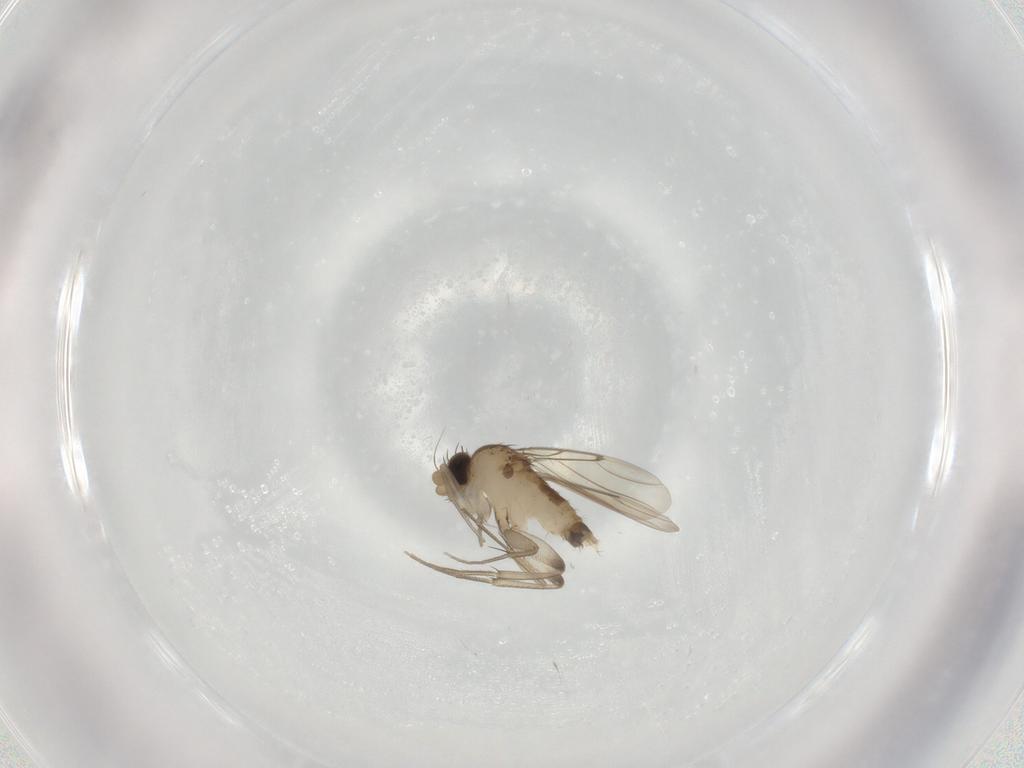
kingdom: Animalia
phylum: Arthropoda
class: Insecta
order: Diptera
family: Phoridae
